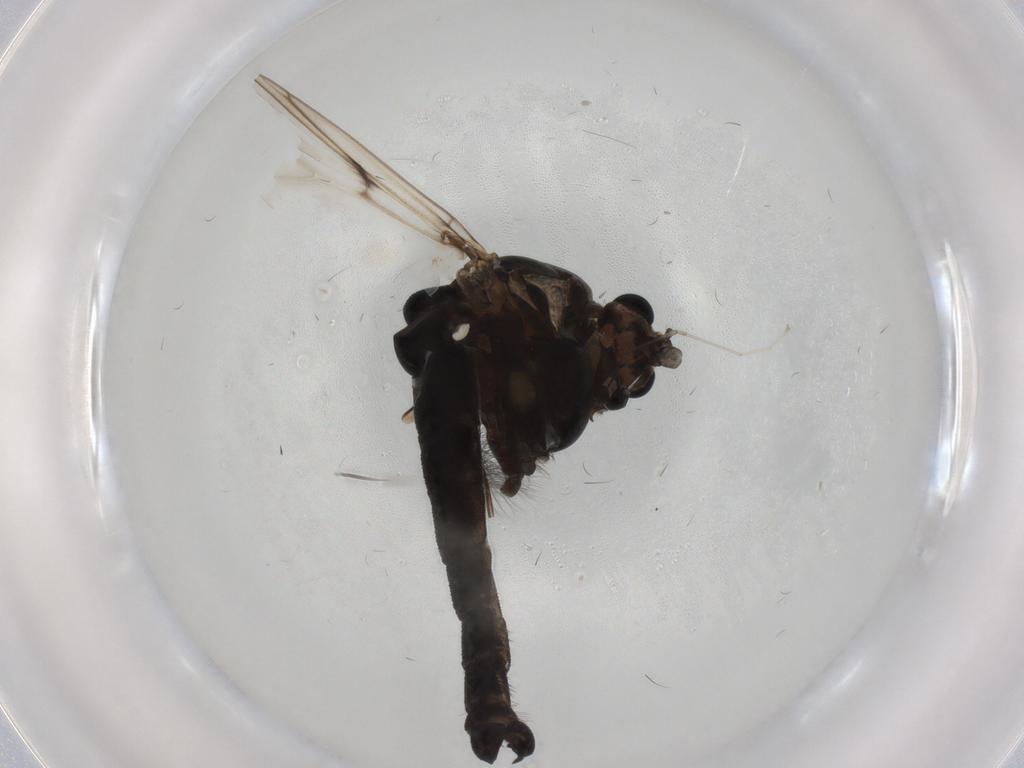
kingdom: Animalia
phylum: Arthropoda
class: Insecta
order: Diptera
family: Chironomidae
